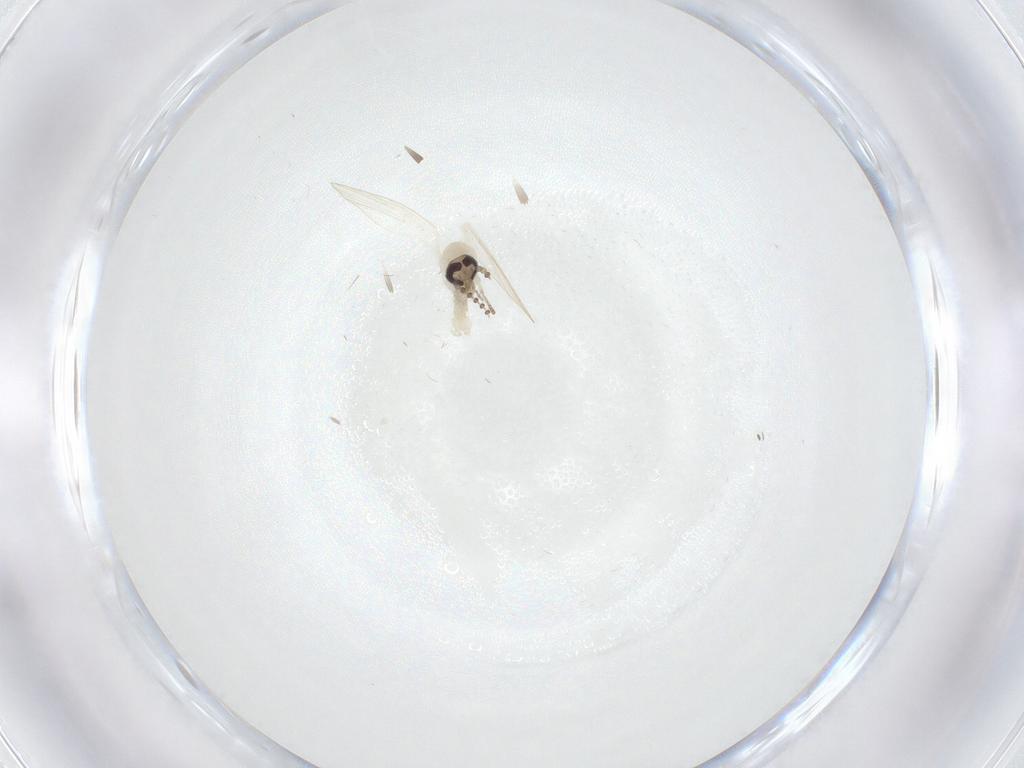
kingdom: Animalia
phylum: Arthropoda
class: Insecta
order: Diptera
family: Psychodidae
